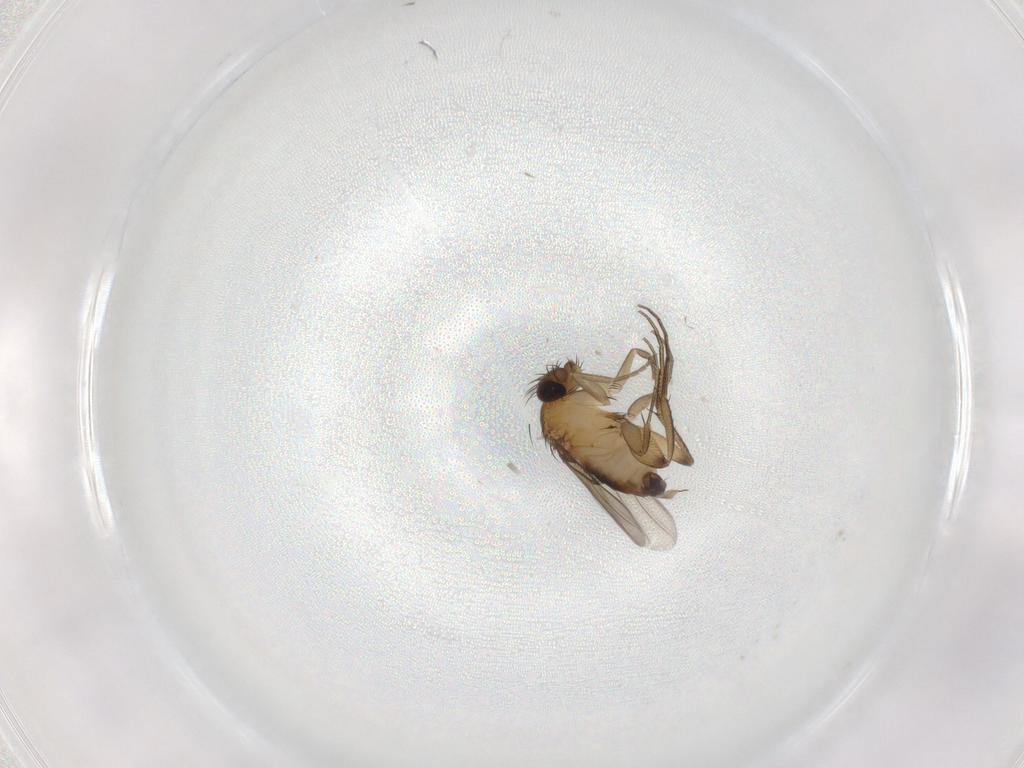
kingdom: Animalia
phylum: Arthropoda
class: Insecta
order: Diptera
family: Phoridae
